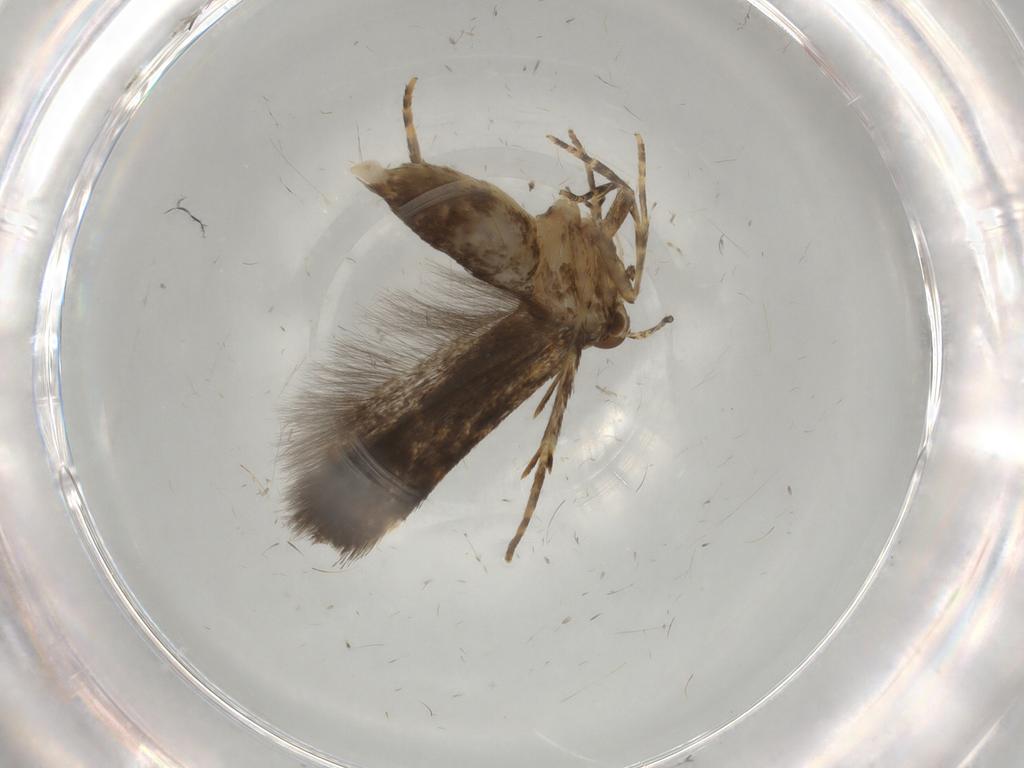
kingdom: Animalia
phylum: Arthropoda
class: Insecta
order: Lepidoptera
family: Oecophoridae
